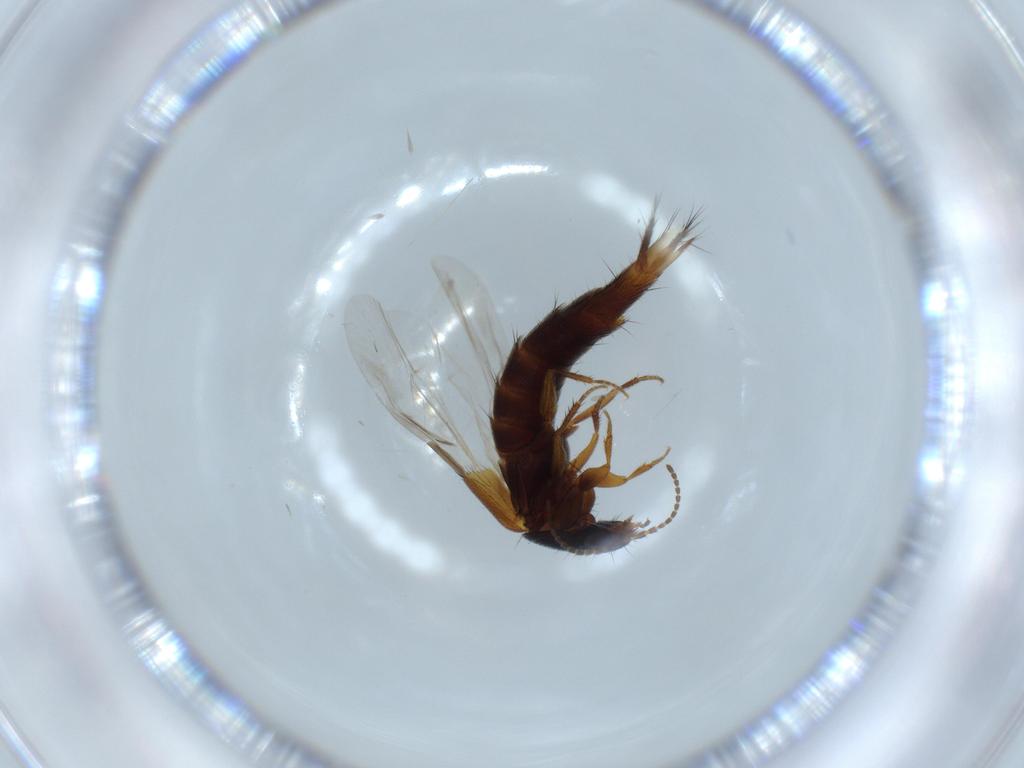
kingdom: Animalia
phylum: Arthropoda
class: Insecta
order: Coleoptera
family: Staphylinidae
